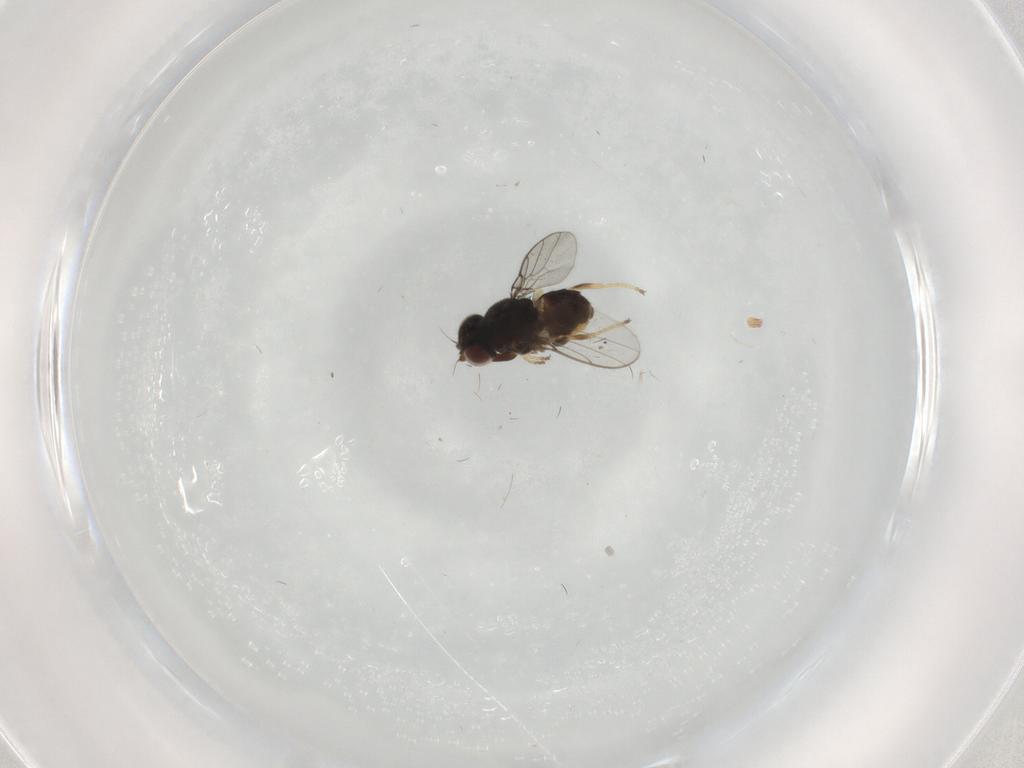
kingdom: Animalia
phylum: Arthropoda
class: Insecta
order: Diptera
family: Chloropidae
